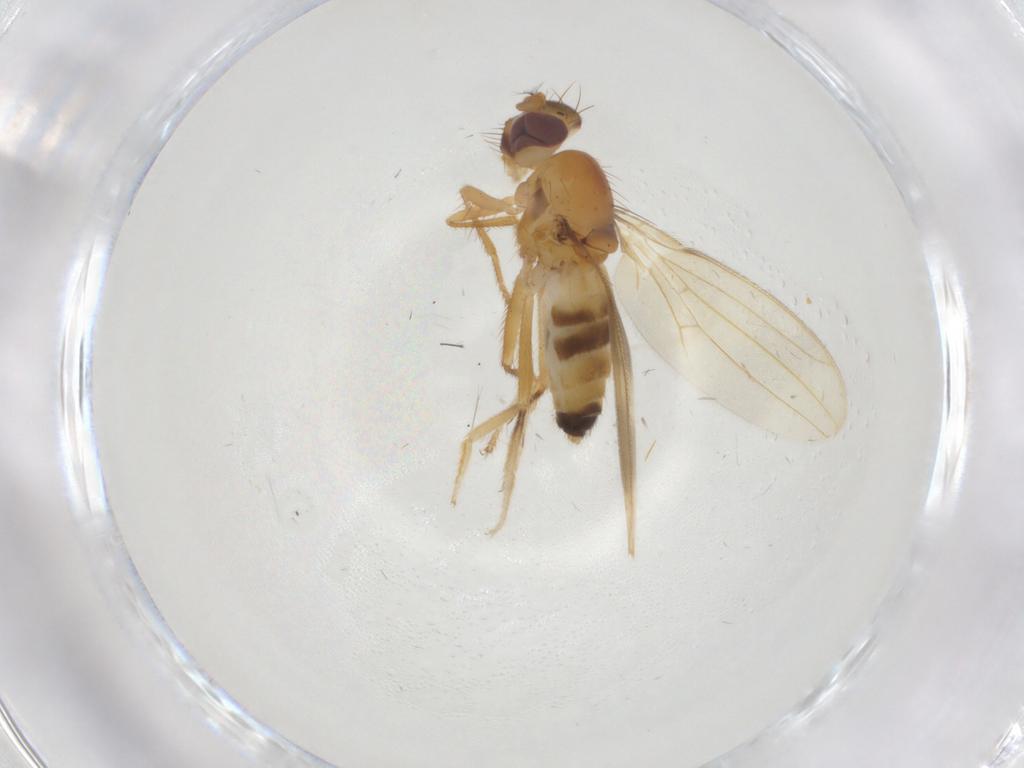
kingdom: Animalia
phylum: Arthropoda
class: Insecta
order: Diptera
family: Periscelididae
